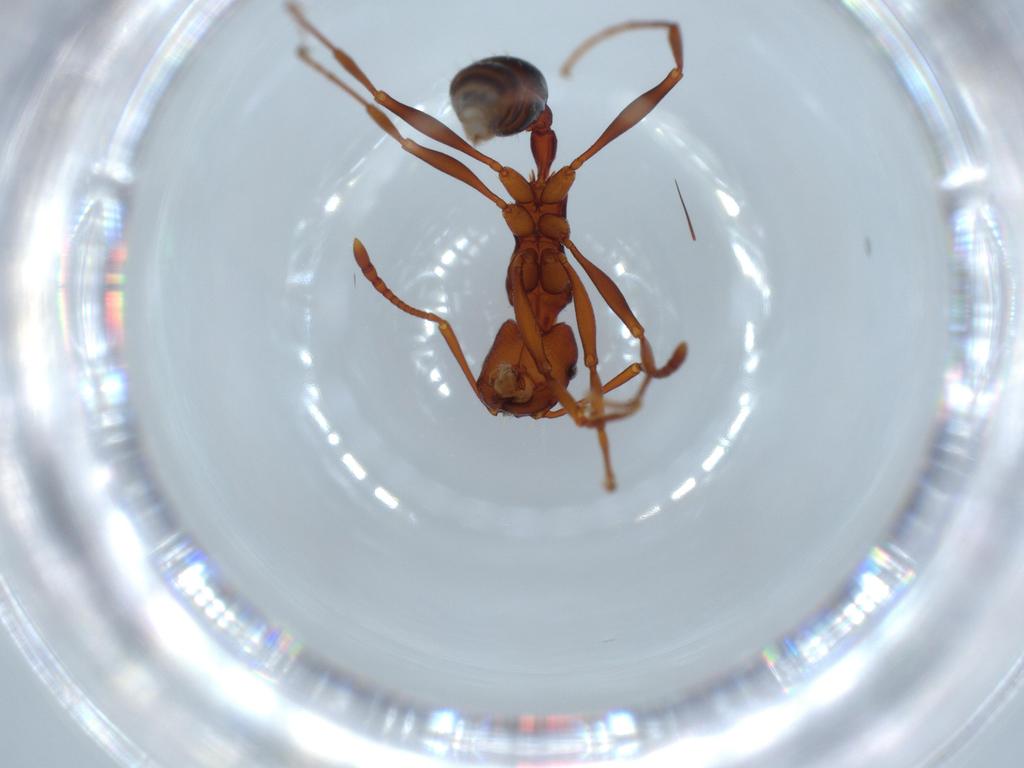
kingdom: Animalia
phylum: Arthropoda
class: Insecta
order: Hymenoptera
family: Formicidae
